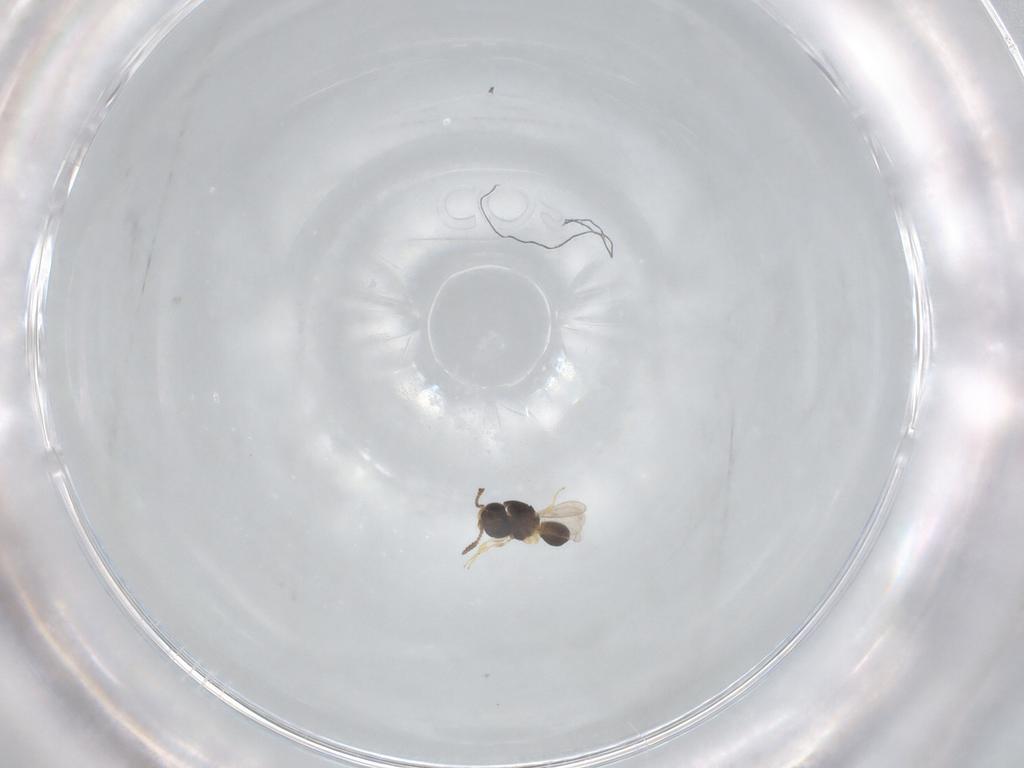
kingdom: Animalia
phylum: Arthropoda
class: Insecta
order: Hymenoptera
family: Scelionidae
